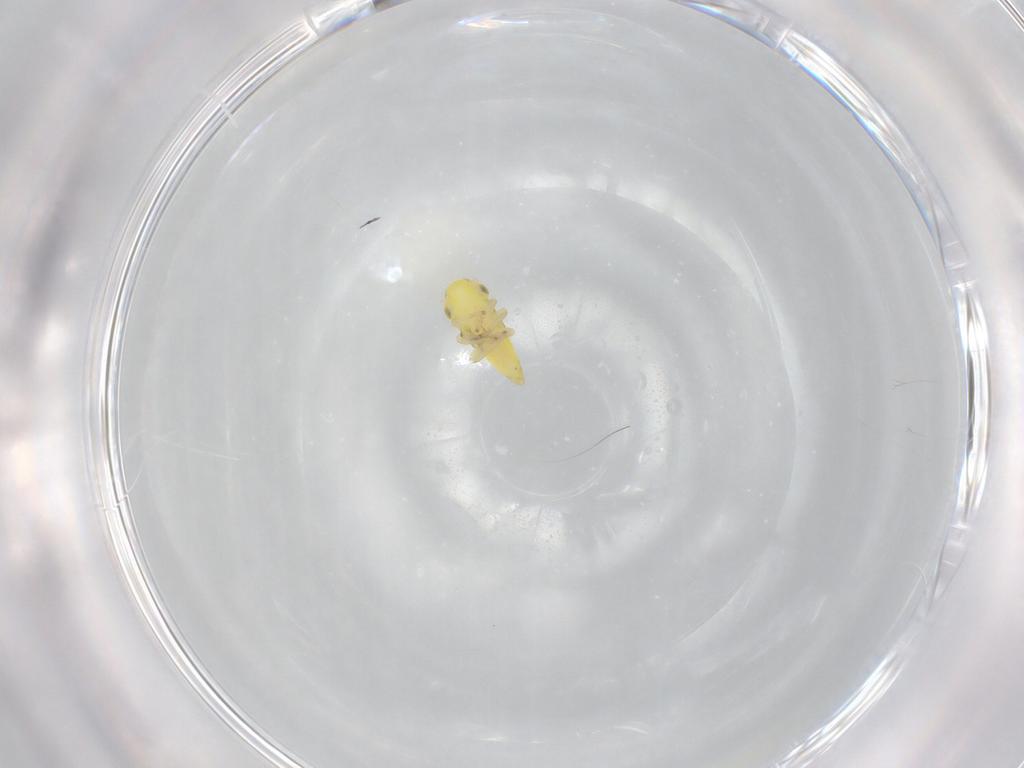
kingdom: Animalia
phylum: Arthropoda
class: Insecta
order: Hemiptera
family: Cicadellidae
